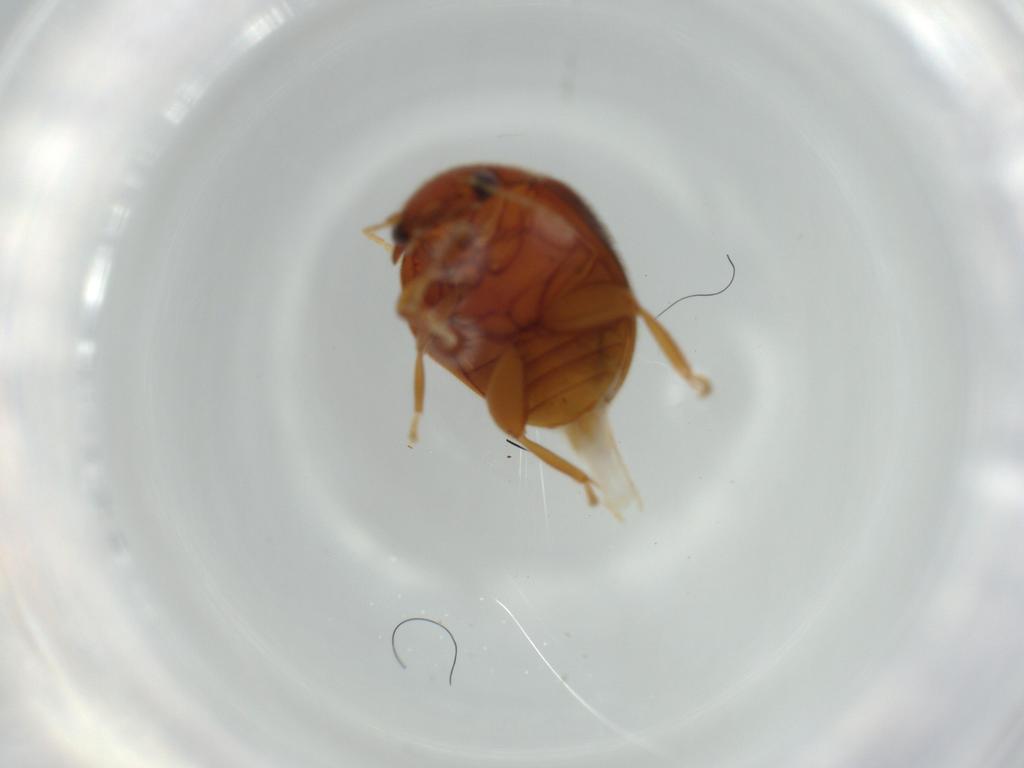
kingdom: Animalia
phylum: Arthropoda
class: Insecta
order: Coleoptera
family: Scirtidae
